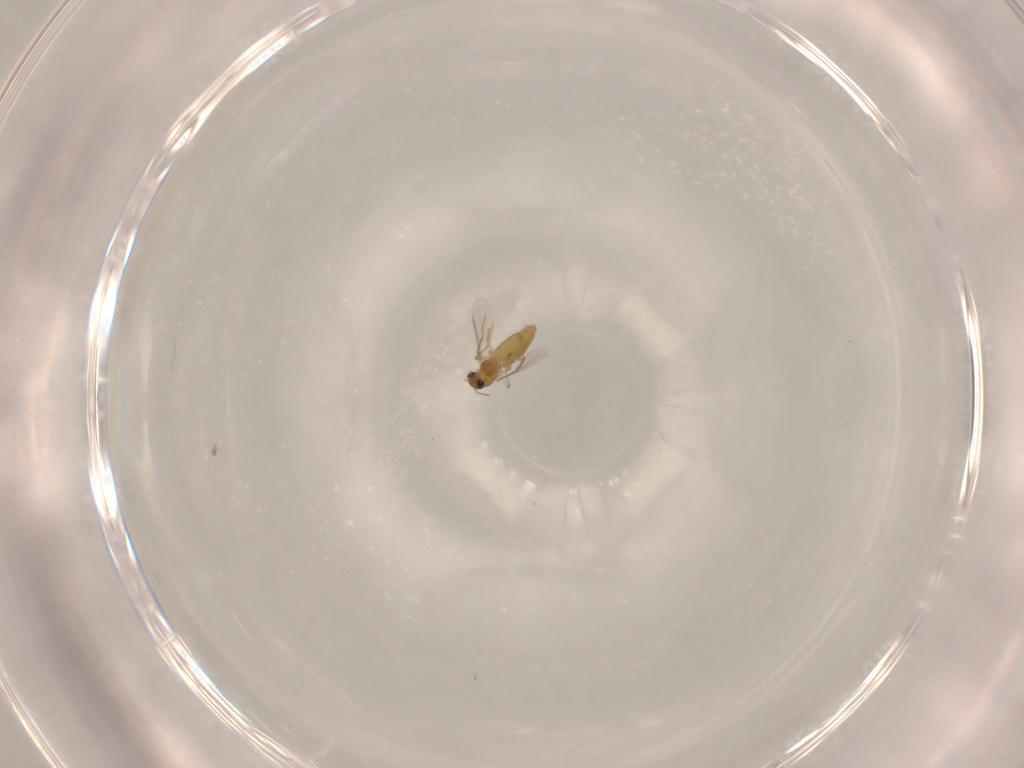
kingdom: Animalia
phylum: Arthropoda
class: Insecta
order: Diptera
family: Chironomidae
